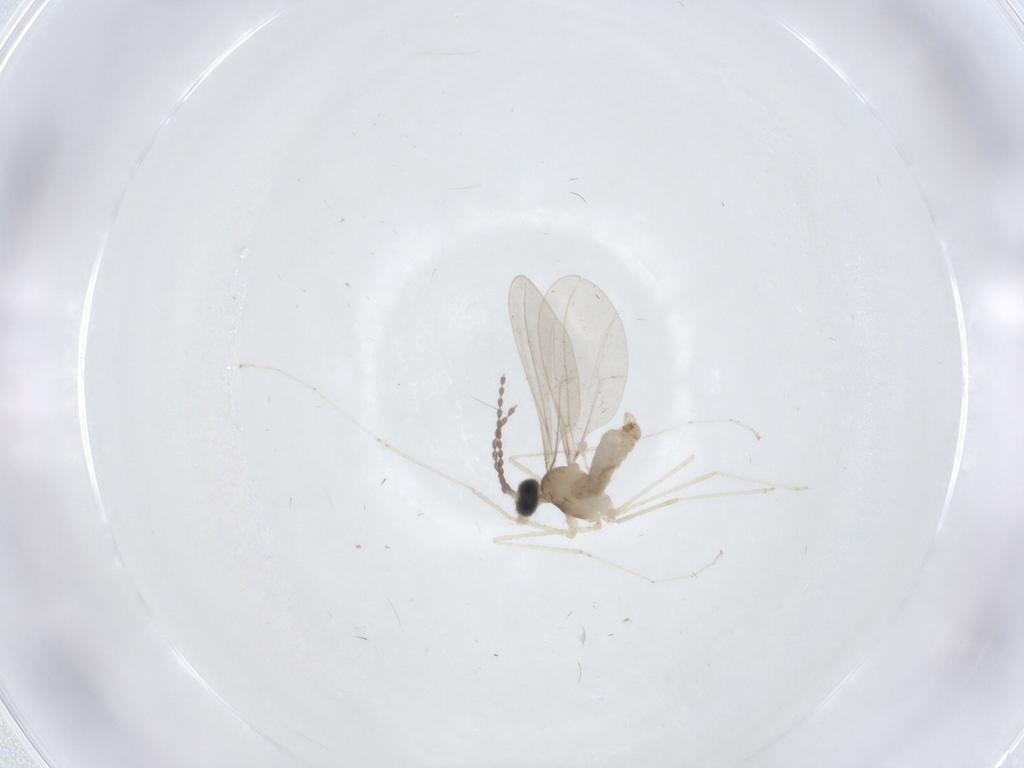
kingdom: Animalia
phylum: Arthropoda
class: Insecta
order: Diptera
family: Cecidomyiidae
